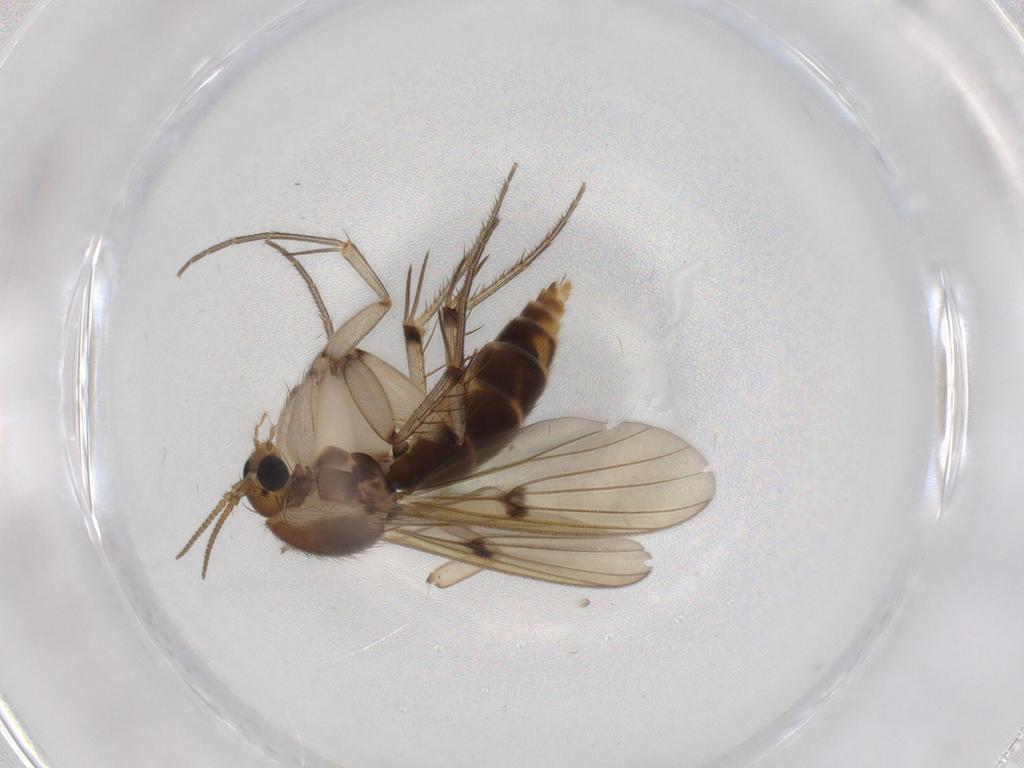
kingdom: Animalia
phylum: Arthropoda
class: Insecta
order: Diptera
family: Mycetophilidae
